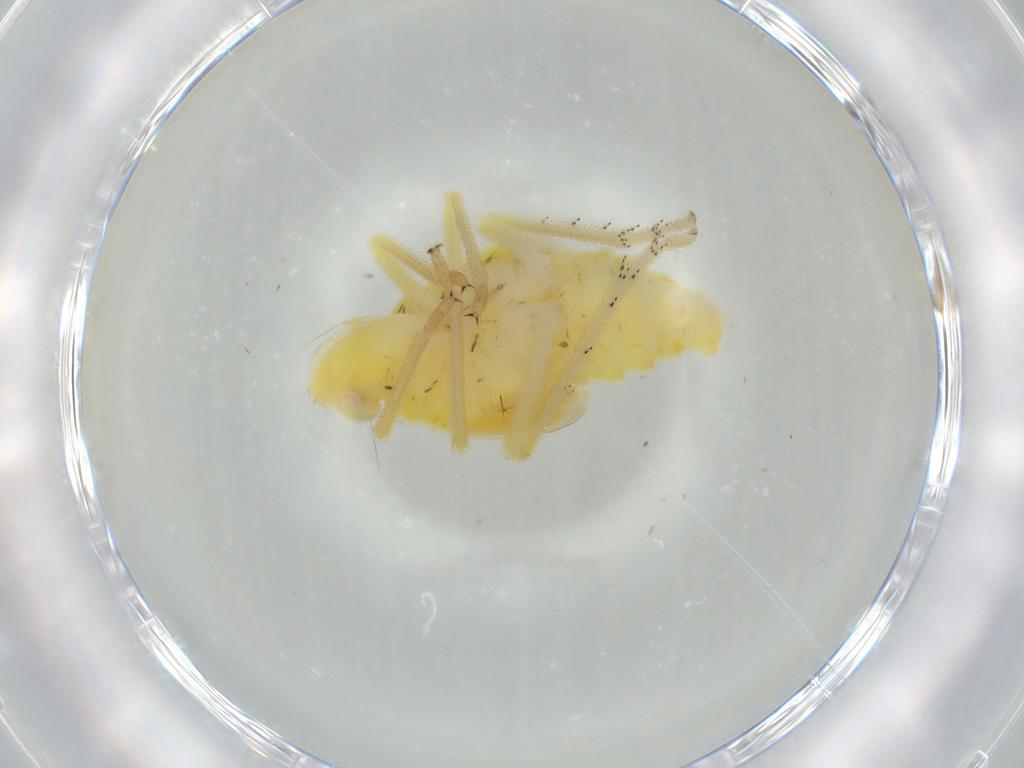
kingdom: Animalia
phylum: Arthropoda
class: Insecta
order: Hemiptera
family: Tropiduchidae
